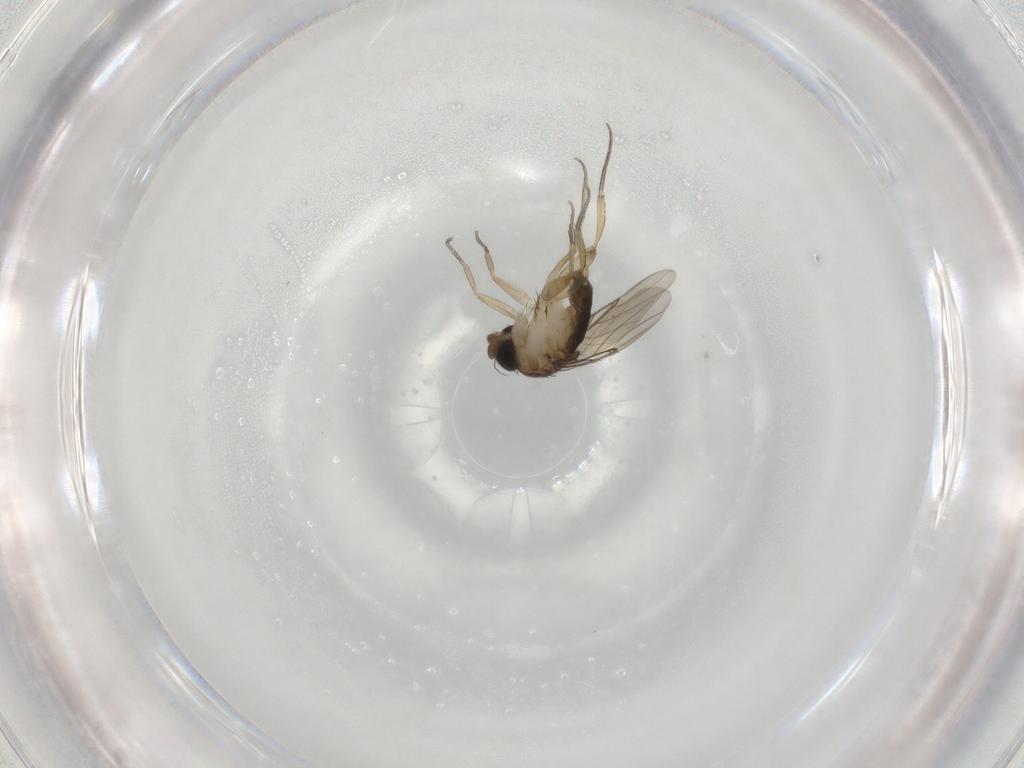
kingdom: Animalia
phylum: Arthropoda
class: Insecta
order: Diptera
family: Phoridae
